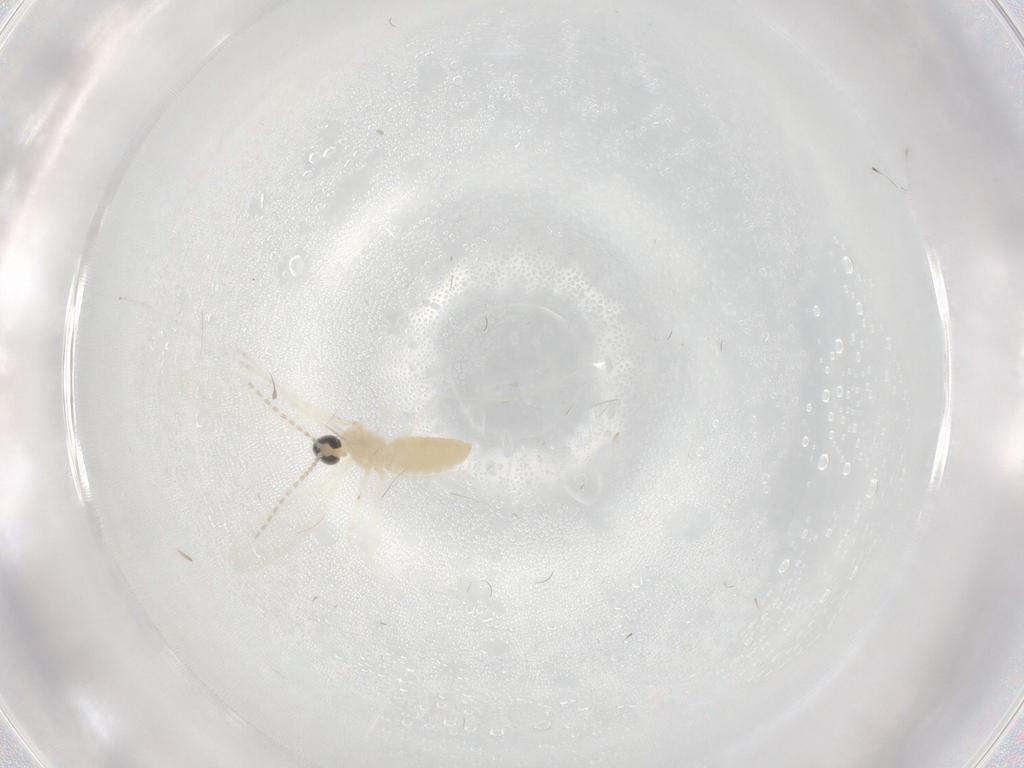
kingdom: Animalia
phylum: Arthropoda
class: Insecta
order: Diptera
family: Cecidomyiidae
